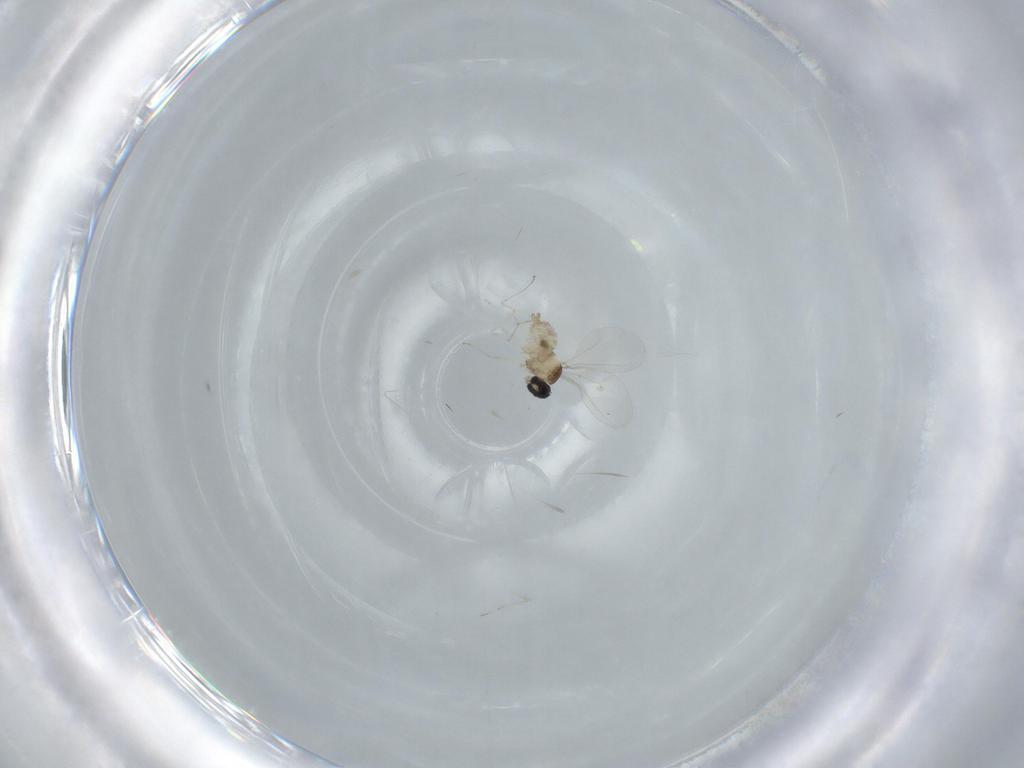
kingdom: Animalia
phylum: Arthropoda
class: Insecta
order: Diptera
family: Cecidomyiidae
